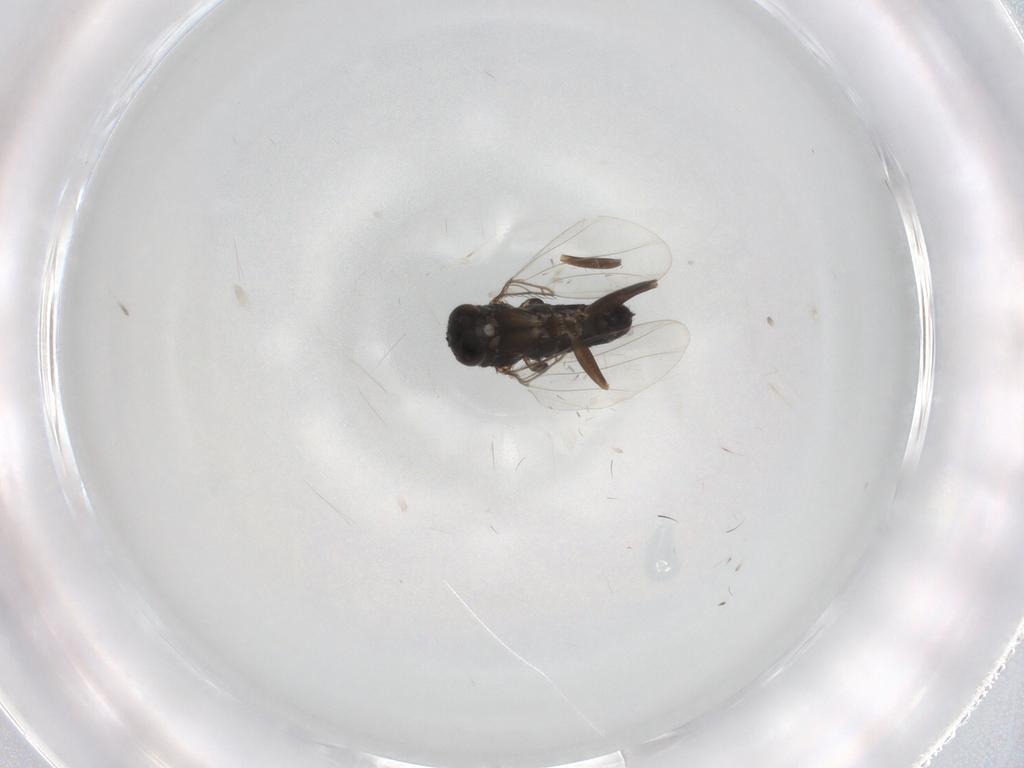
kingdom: Animalia
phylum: Arthropoda
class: Insecta
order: Diptera
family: Phoridae
